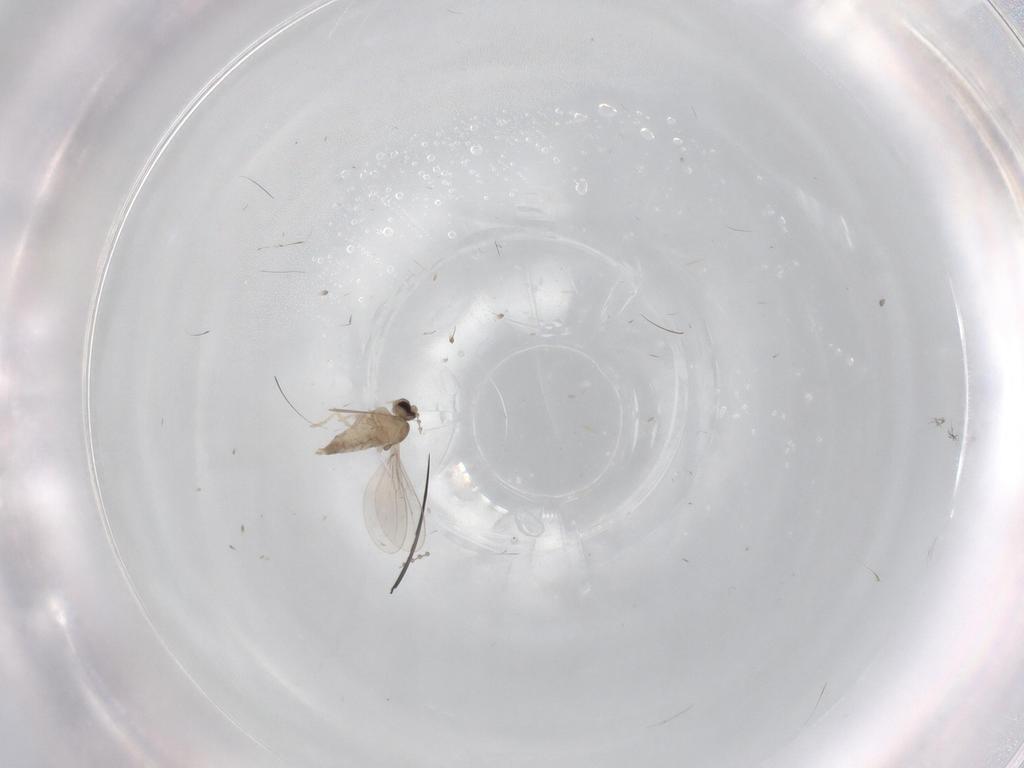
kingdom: Animalia
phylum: Arthropoda
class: Insecta
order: Diptera
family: Cecidomyiidae
